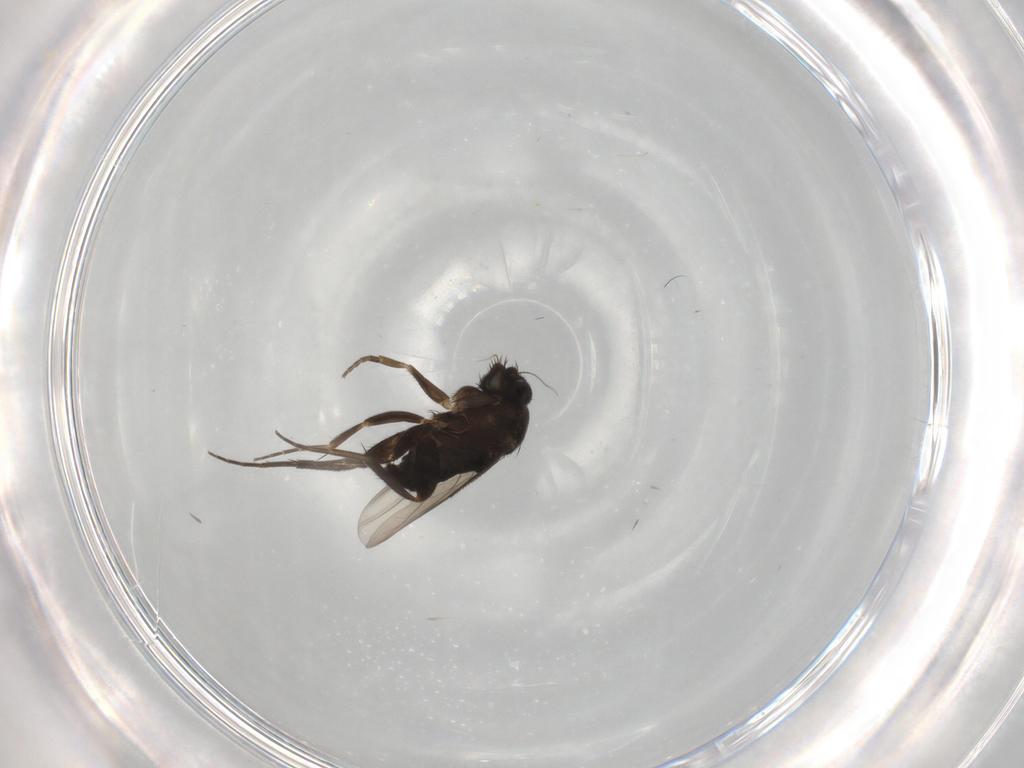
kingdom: Animalia
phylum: Arthropoda
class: Insecta
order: Diptera
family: Phoridae
